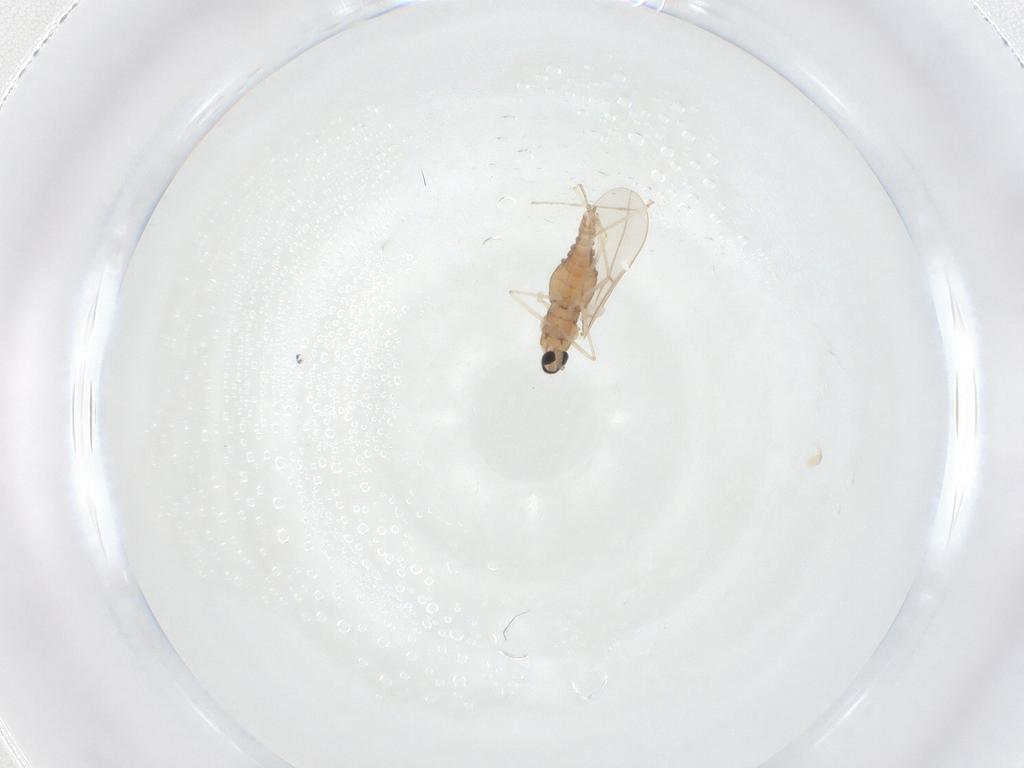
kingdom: Animalia
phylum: Arthropoda
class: Insecta
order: Diptera
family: Cecidomyiidae
